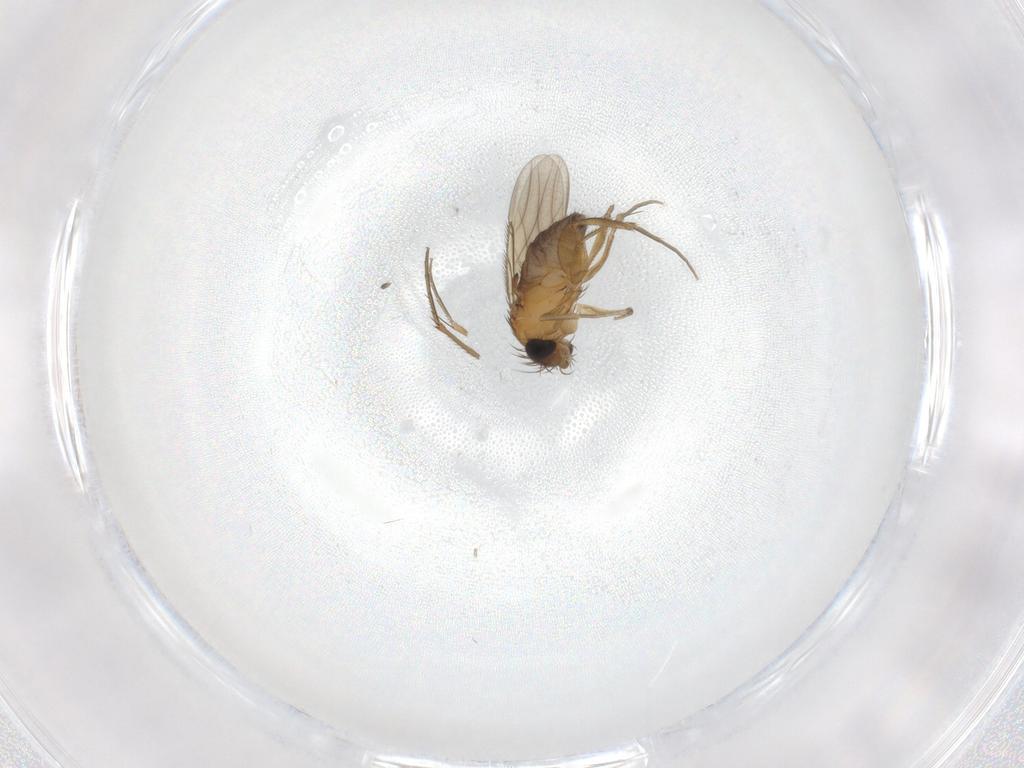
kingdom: Animalia
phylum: Arthropoda
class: Insecta
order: Diptera
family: Phoridae
